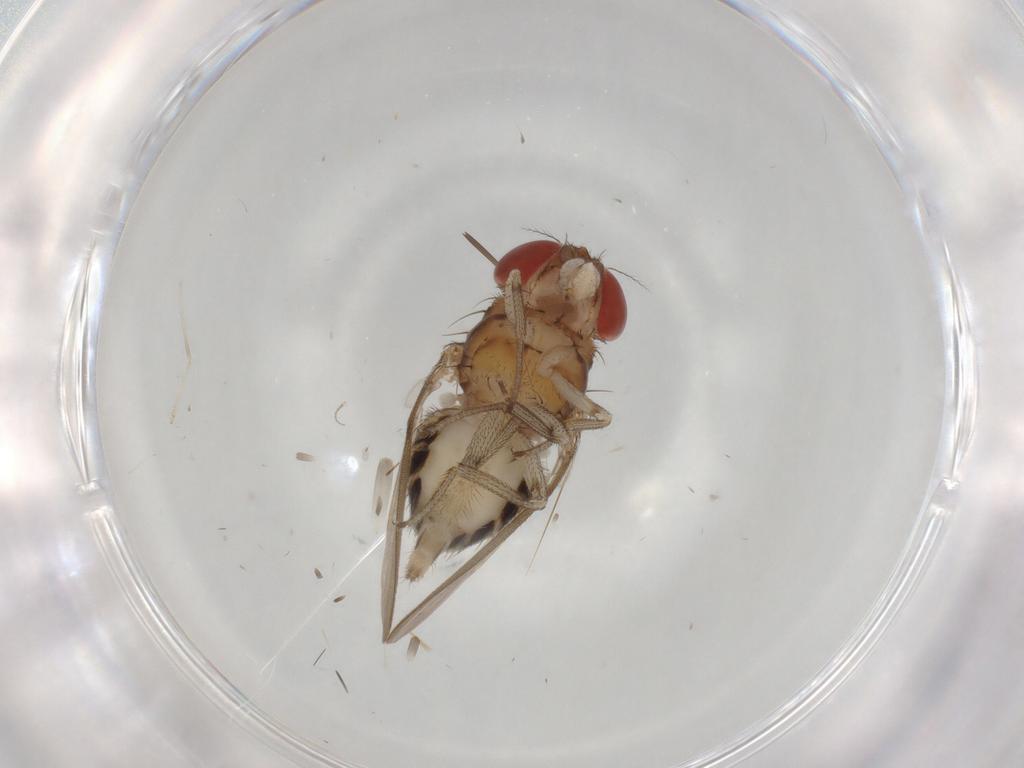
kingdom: Animalia
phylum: Arthropoda
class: Insecta
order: Diptera
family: Drosophilidae
